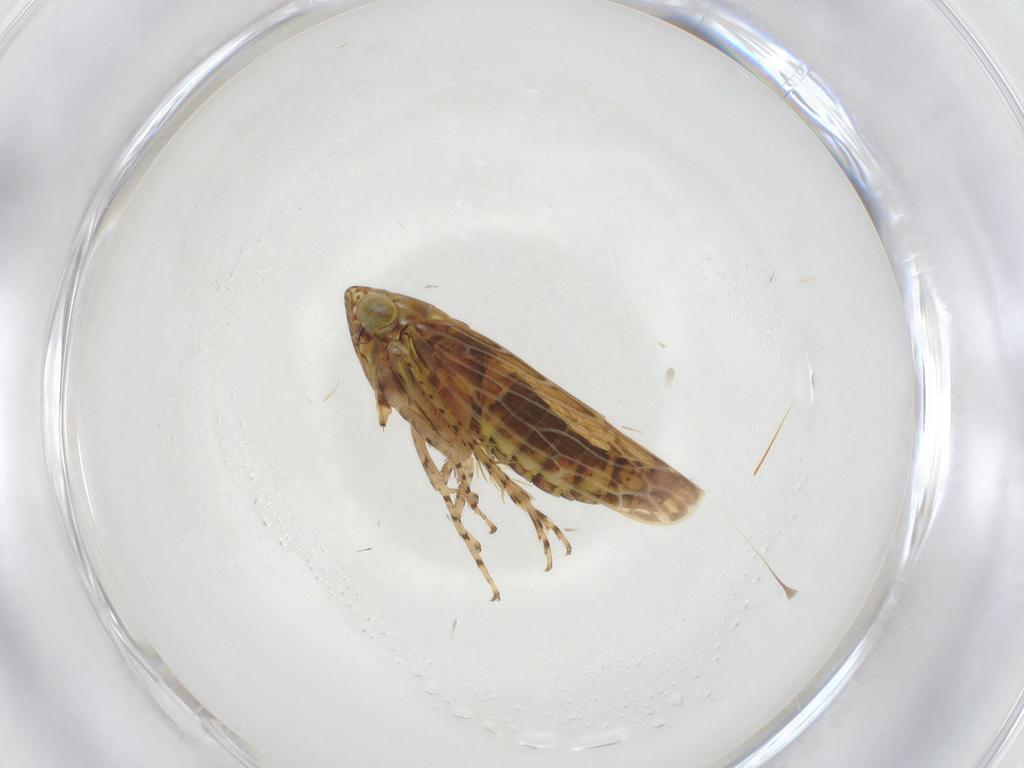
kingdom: Animalia
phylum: Arthropoda
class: Insecta
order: Hemiptera
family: Cicadellidae
